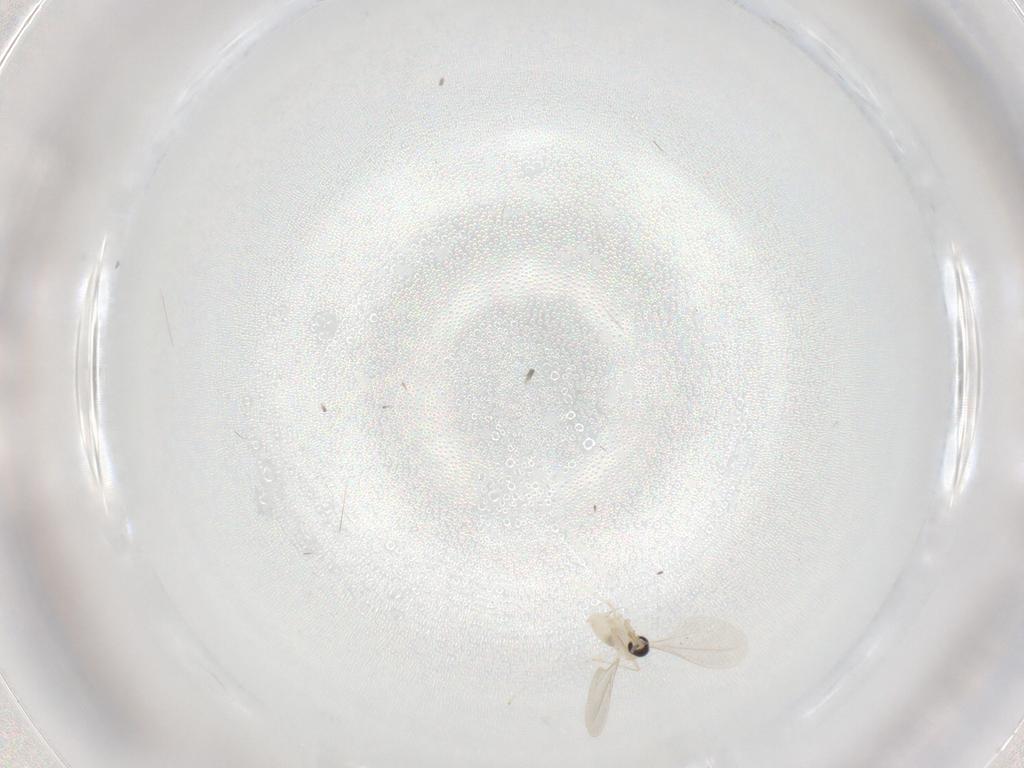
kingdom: Animalia
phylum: Arthropoda
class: Insecta
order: Diptera
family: Cecidomyiidae
